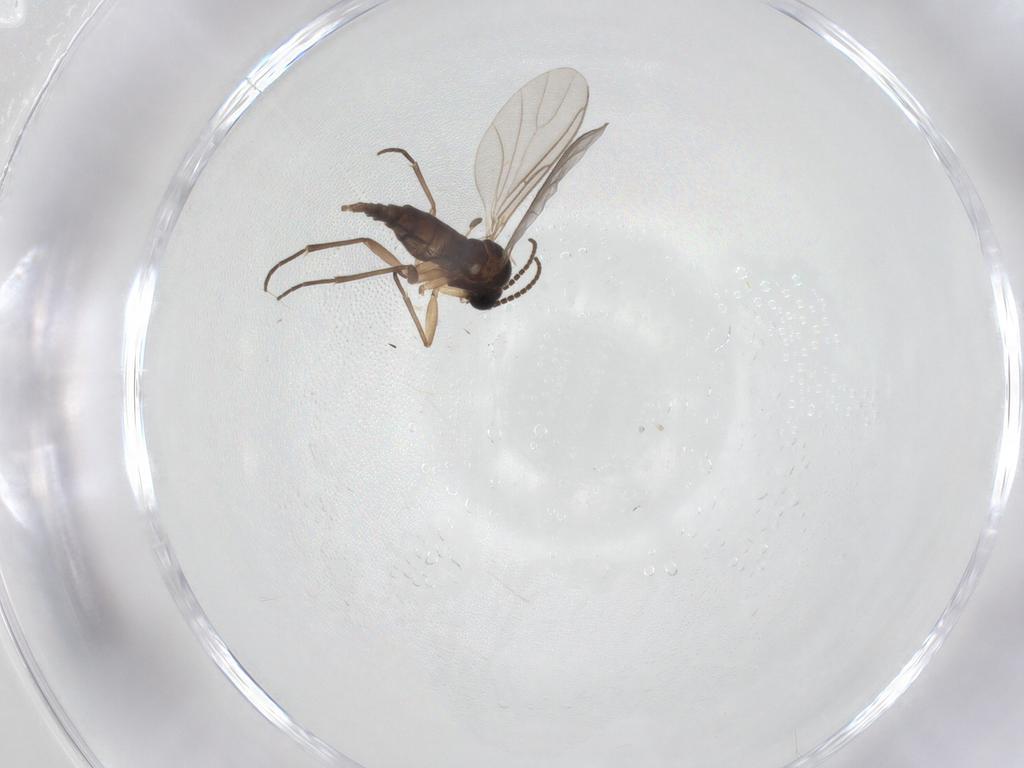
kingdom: Animalia
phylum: Arthropoda
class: Insecta
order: Diptera
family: Sciaridae
